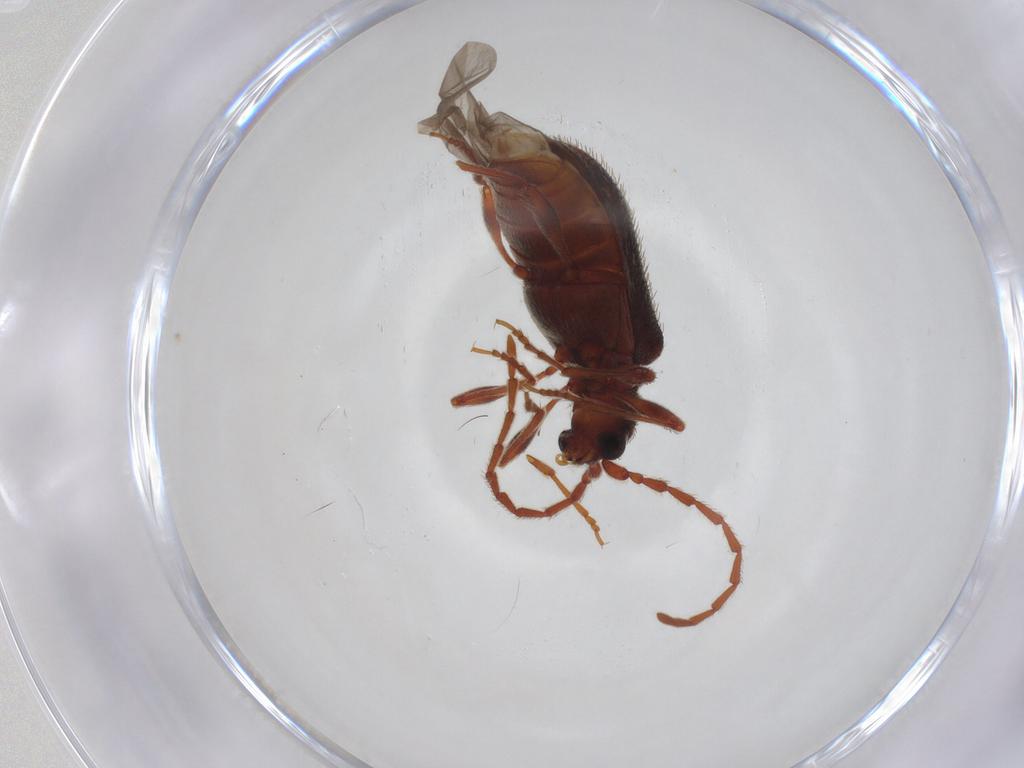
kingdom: Animalia
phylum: Arthropoda
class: Insecta
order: Coleoptera
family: Ptinidae
